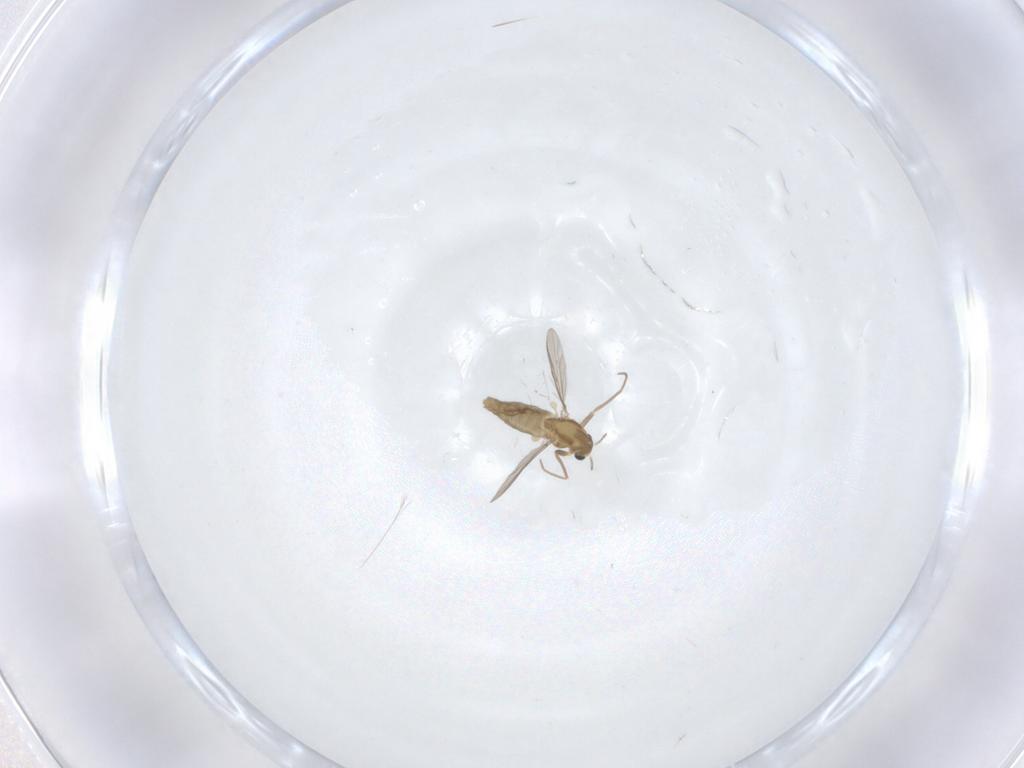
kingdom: Animalia
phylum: Arthropoda
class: Insecta
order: Diptera
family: Chironomidae
